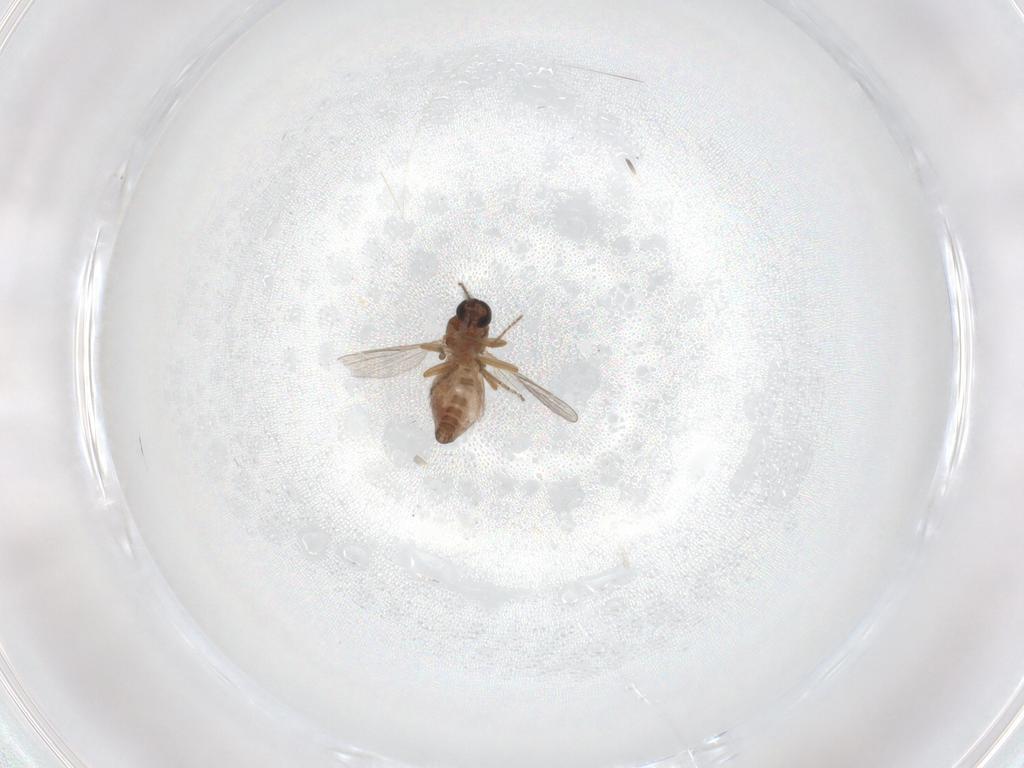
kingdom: Animalia
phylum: Arthropoda
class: Insecta
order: Diptera
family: Ceratopogonidae
